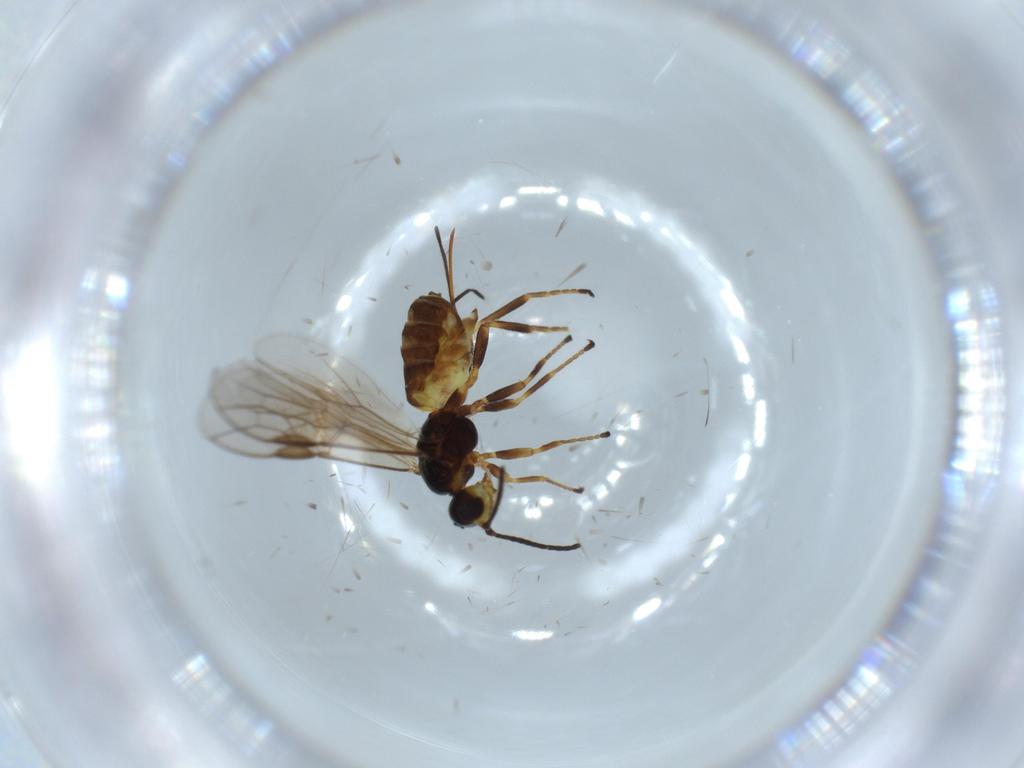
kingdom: Animalia
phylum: Arthropoda
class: Insecta
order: Hymenoptera
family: Braconidae
